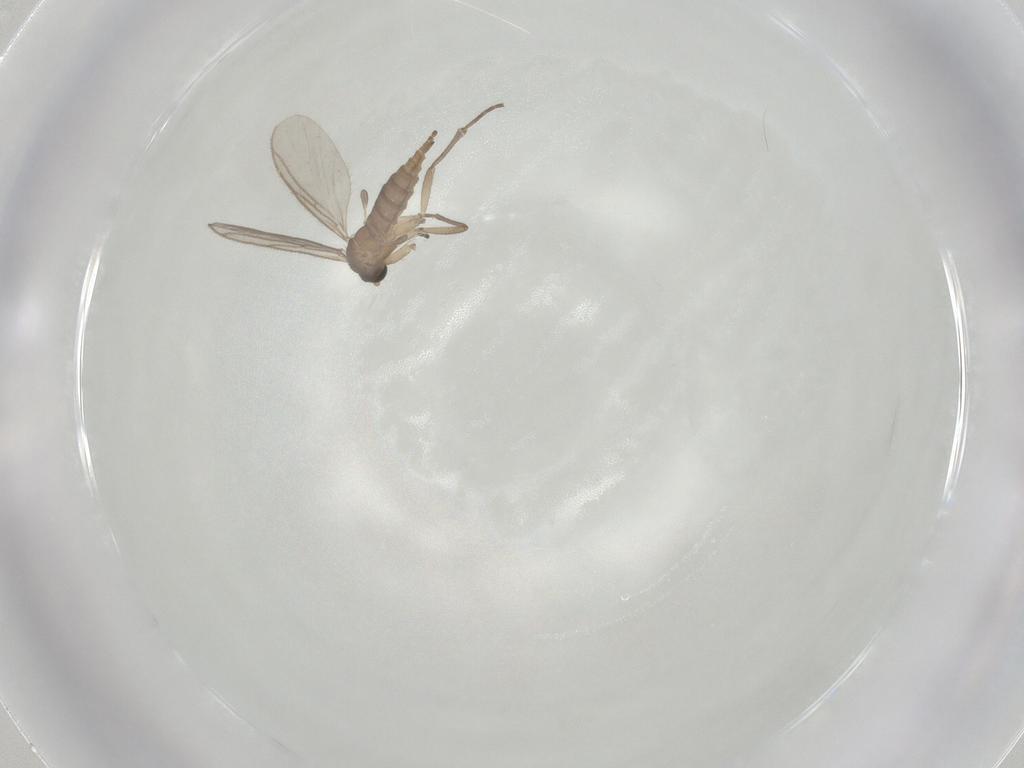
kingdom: Animalia
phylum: Arthropoda
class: Insecta
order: Diptera
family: Sciaridae
